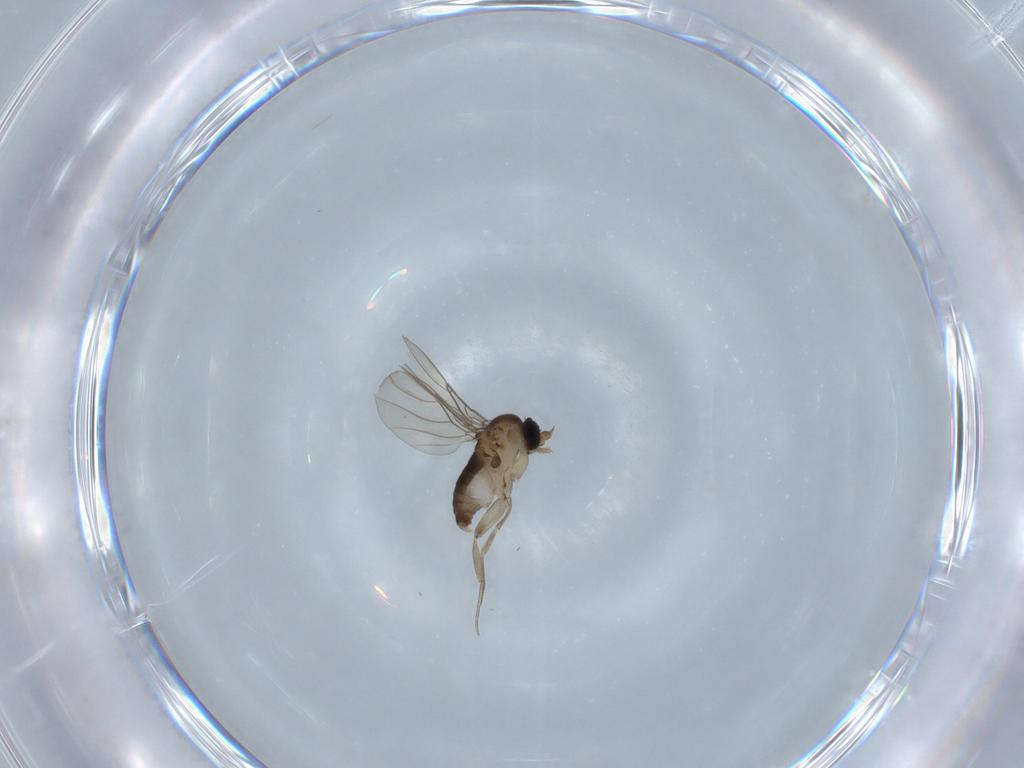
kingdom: Animalia
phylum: Arthropoda
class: Insecta
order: Diptera
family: Phoridae
